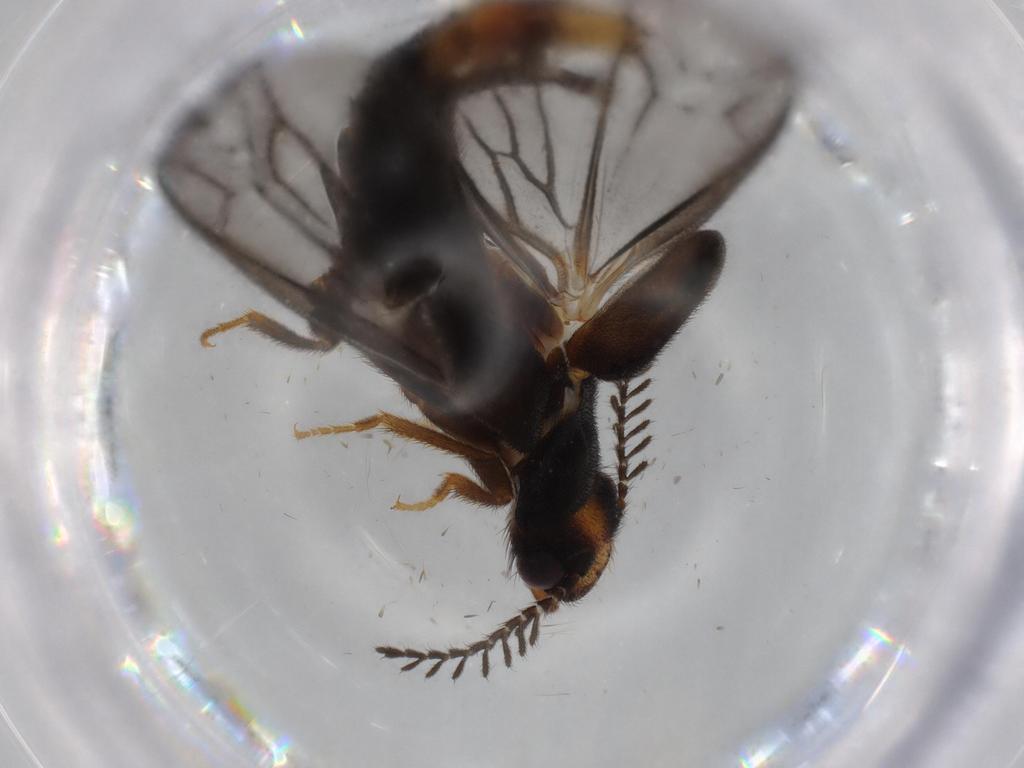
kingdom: Animalia
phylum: Arthropoda
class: Insecta
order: Coleoptera
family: Phengodidae
